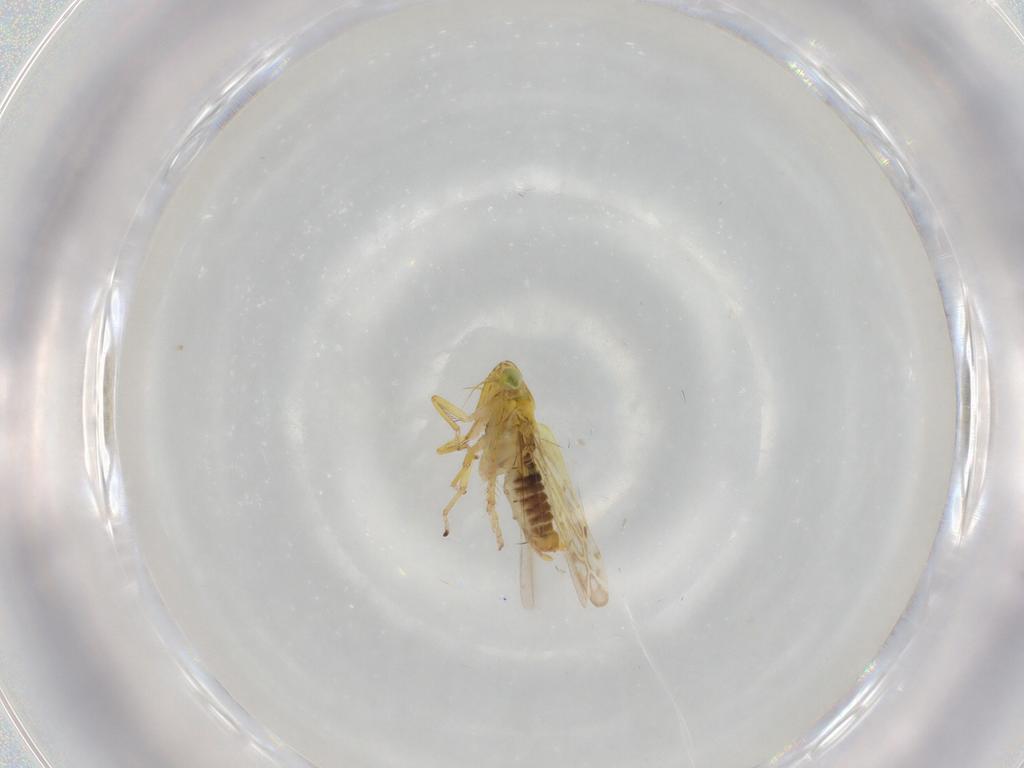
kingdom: Animalia
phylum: Arthropoda
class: Insecta
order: Hemiptera
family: Cicadellidae
